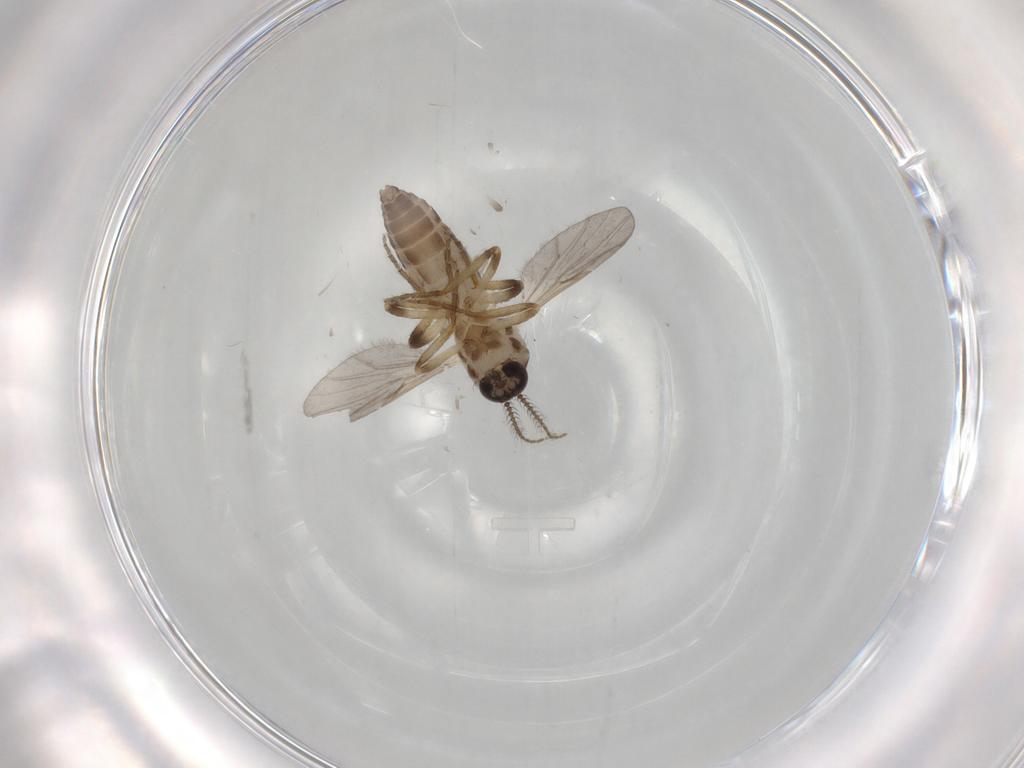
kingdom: Animalia
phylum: Arthropoda
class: Insecta
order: Diptera
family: Ceratopogonidae
